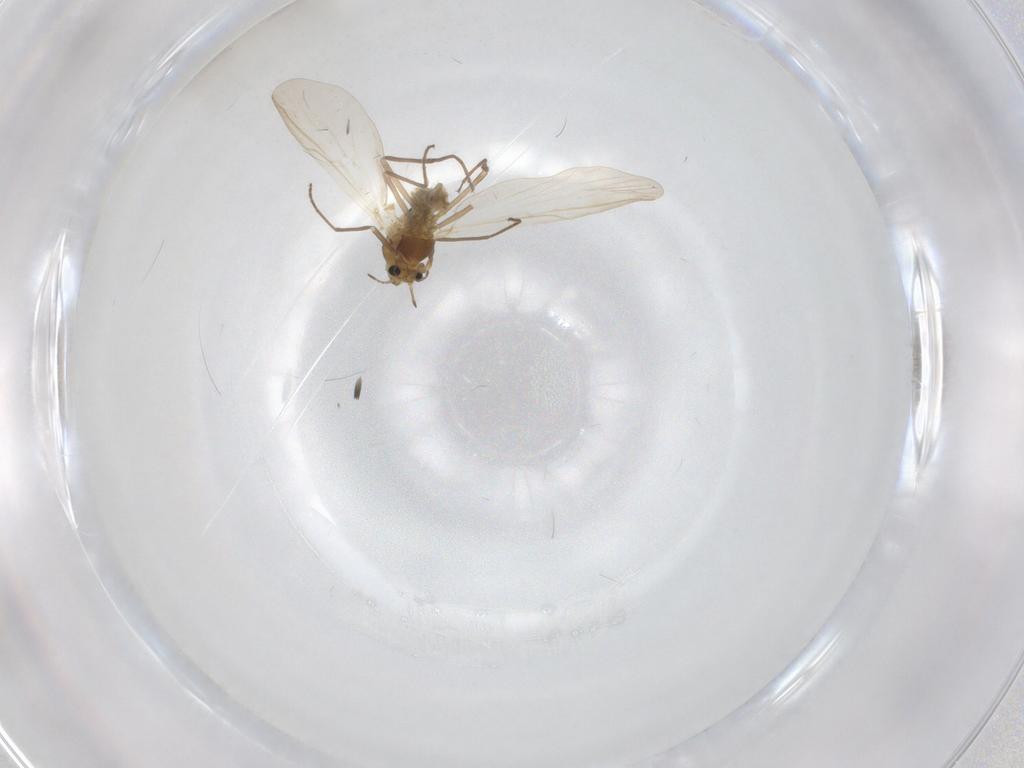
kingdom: Animalia
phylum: Arthropoda
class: Insecta
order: Diptera
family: Chironomidae
